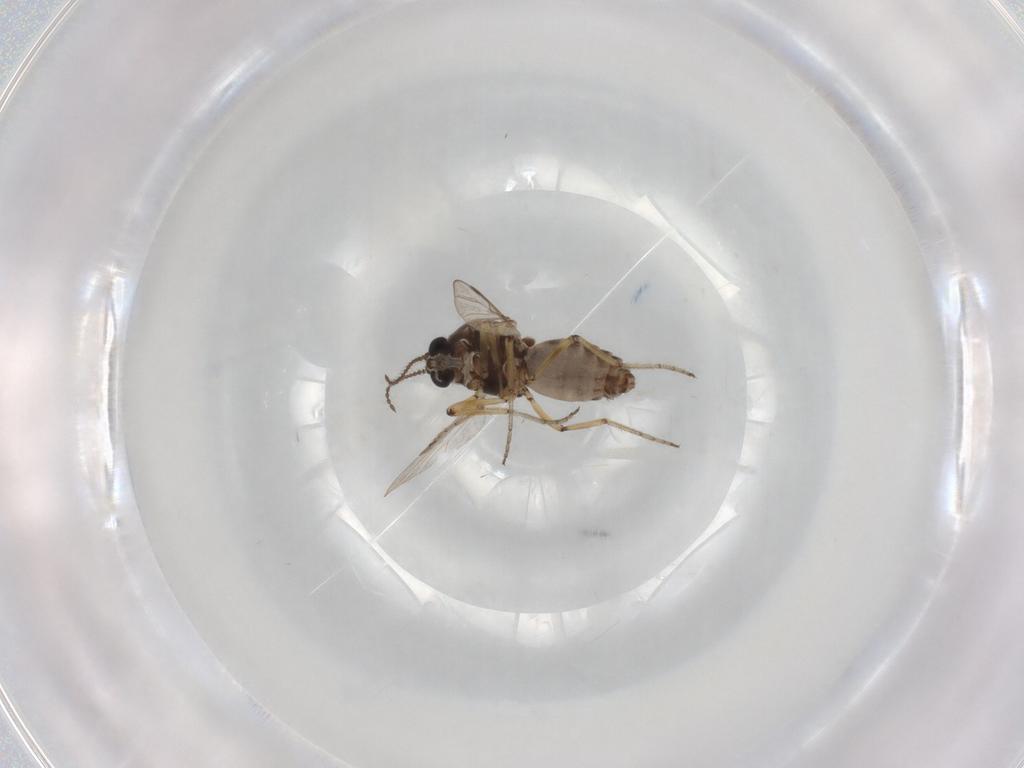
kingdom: Animalia
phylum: Arthropoda
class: Insecta
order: Diptera
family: Ceratopogonidae
